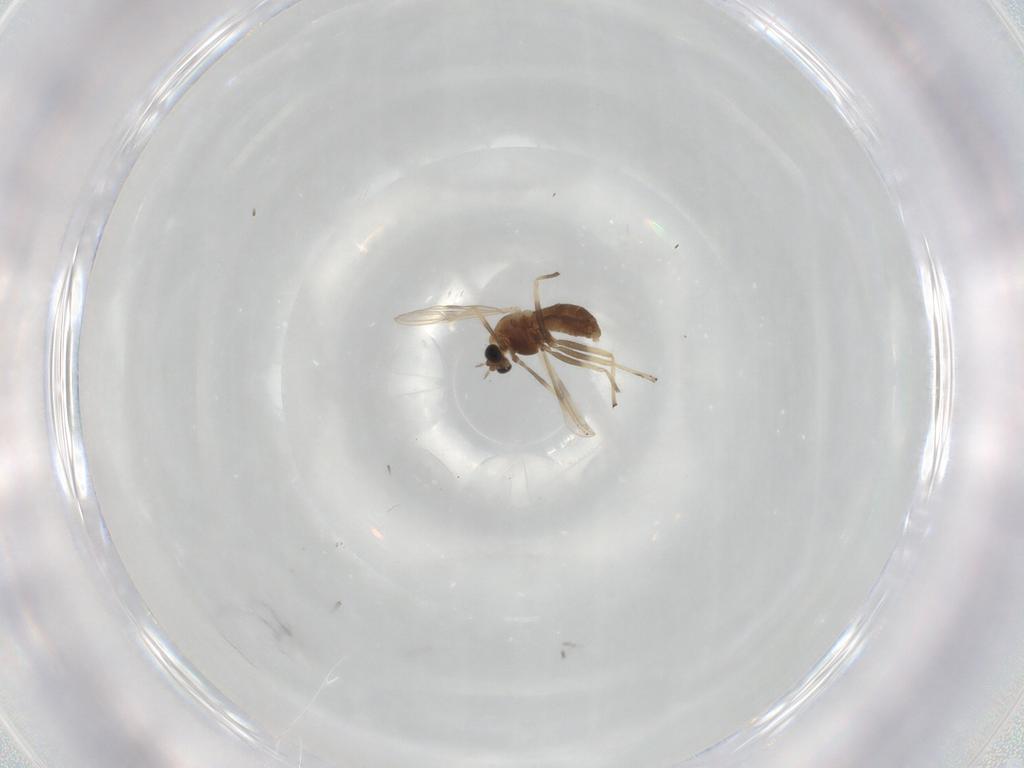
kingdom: Animalia
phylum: Arthropoda
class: Insecta
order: Diptera
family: Chironomidae
